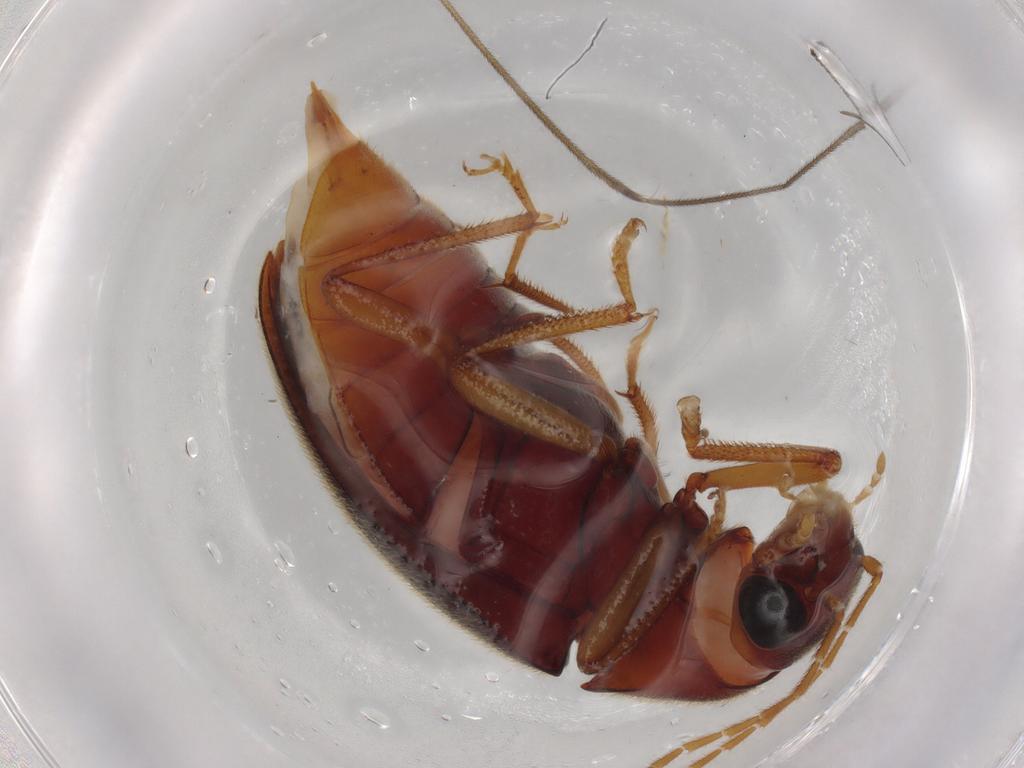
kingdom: Animalia
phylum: Arthropoda
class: Insecta
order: Coleoptera
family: Ptilodactylidae
